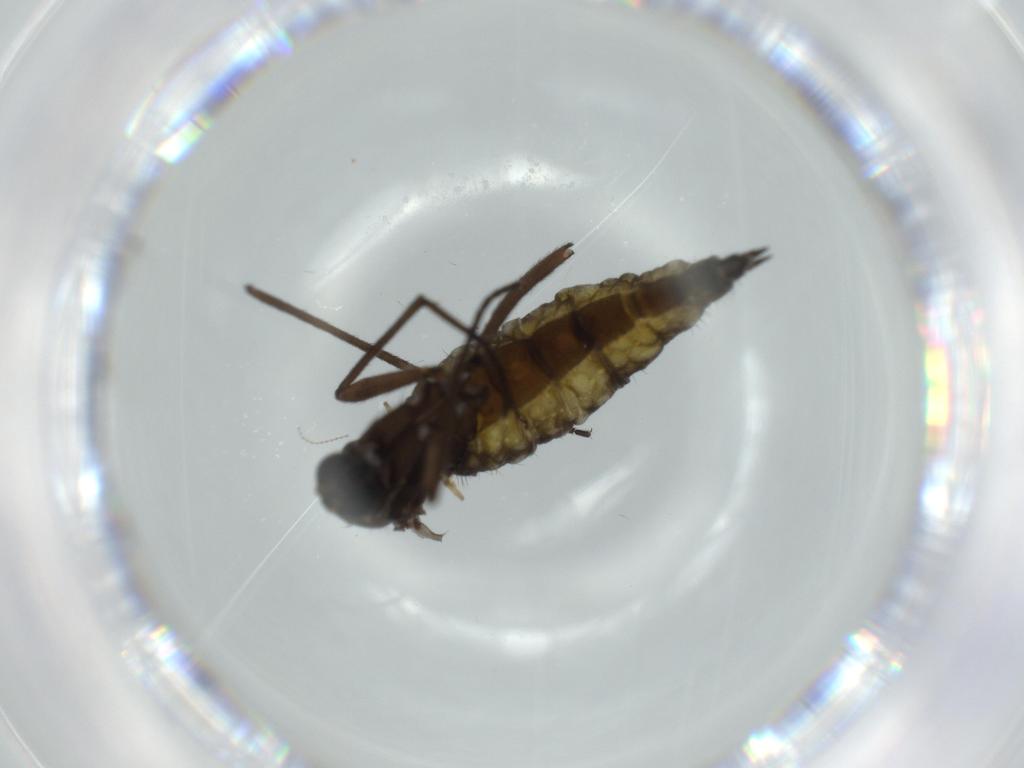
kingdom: Animalia
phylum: Arthropoda
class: Insecta
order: Diptera
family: Sciaridae
